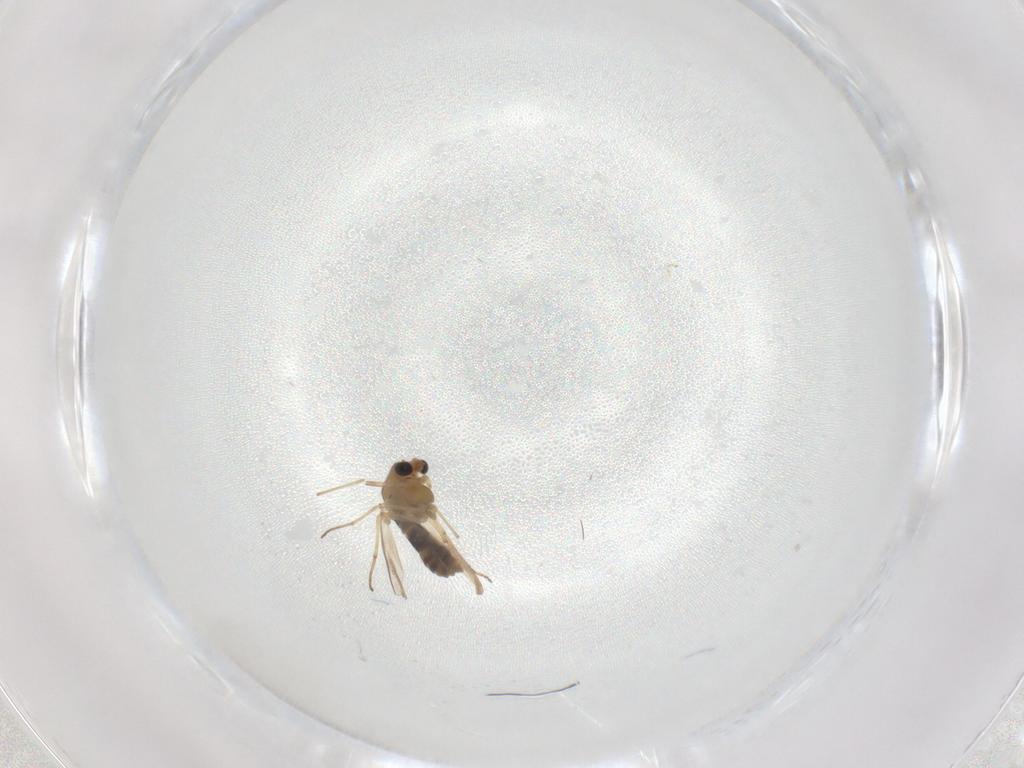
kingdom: Animalia
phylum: Arthropoda
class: Insecta
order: Diptera
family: Chironomidae
